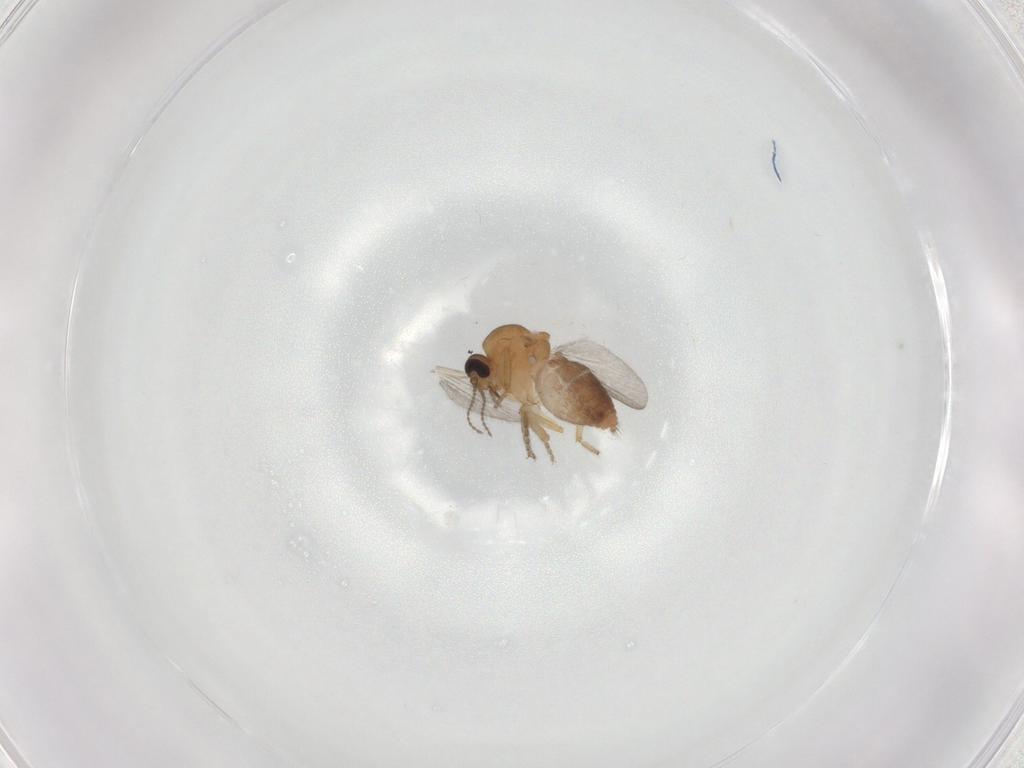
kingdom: Animalia
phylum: Arthropoda
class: Insecta
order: Diptera
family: Ceratopogonidae
